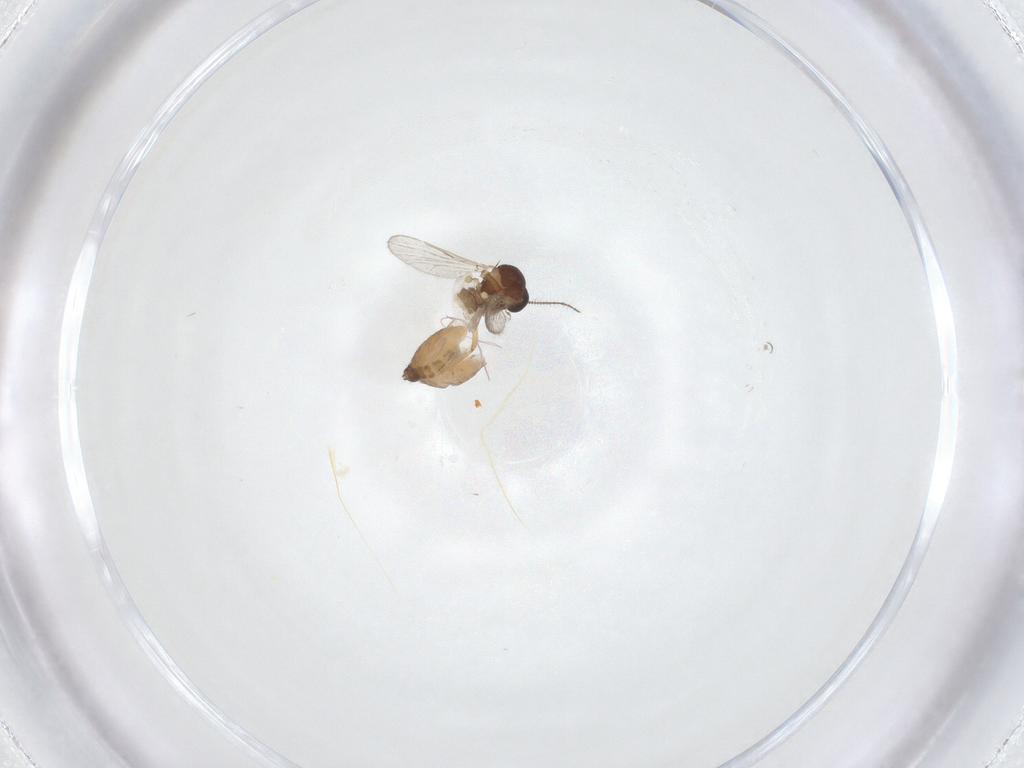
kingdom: Animalia
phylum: Arthropoda
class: Insecta
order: Diptera
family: Ceratopogonidae
